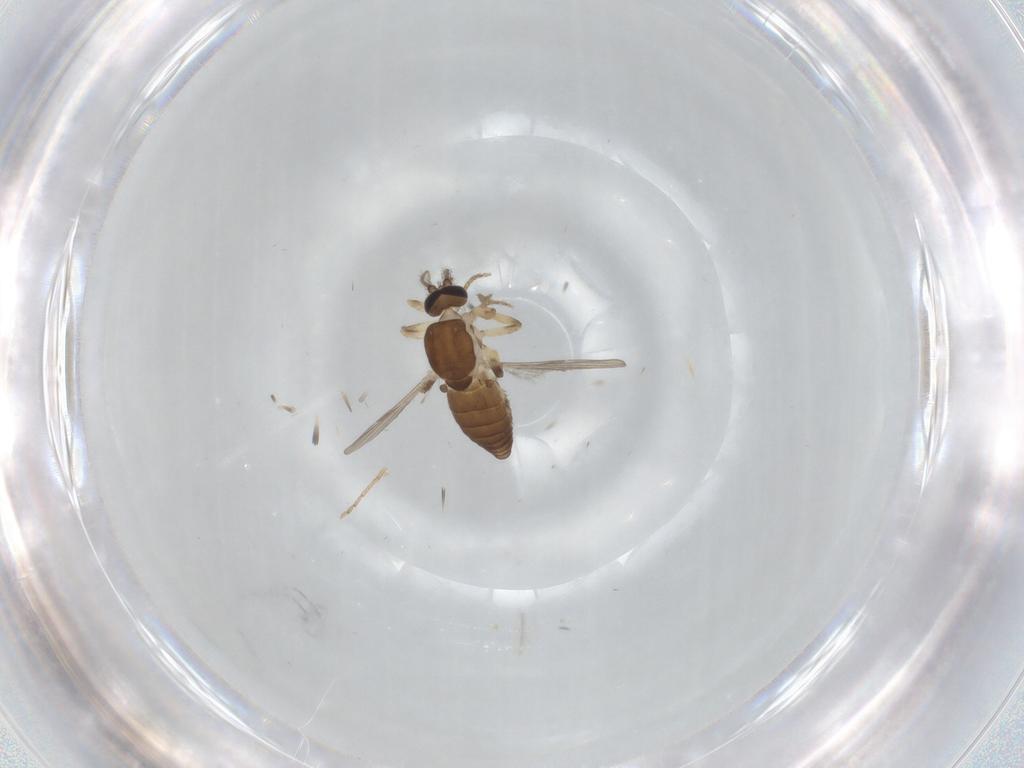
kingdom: Animalia
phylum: Arthropoda
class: Insecta
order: Diptera
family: Ceratopogonidae
